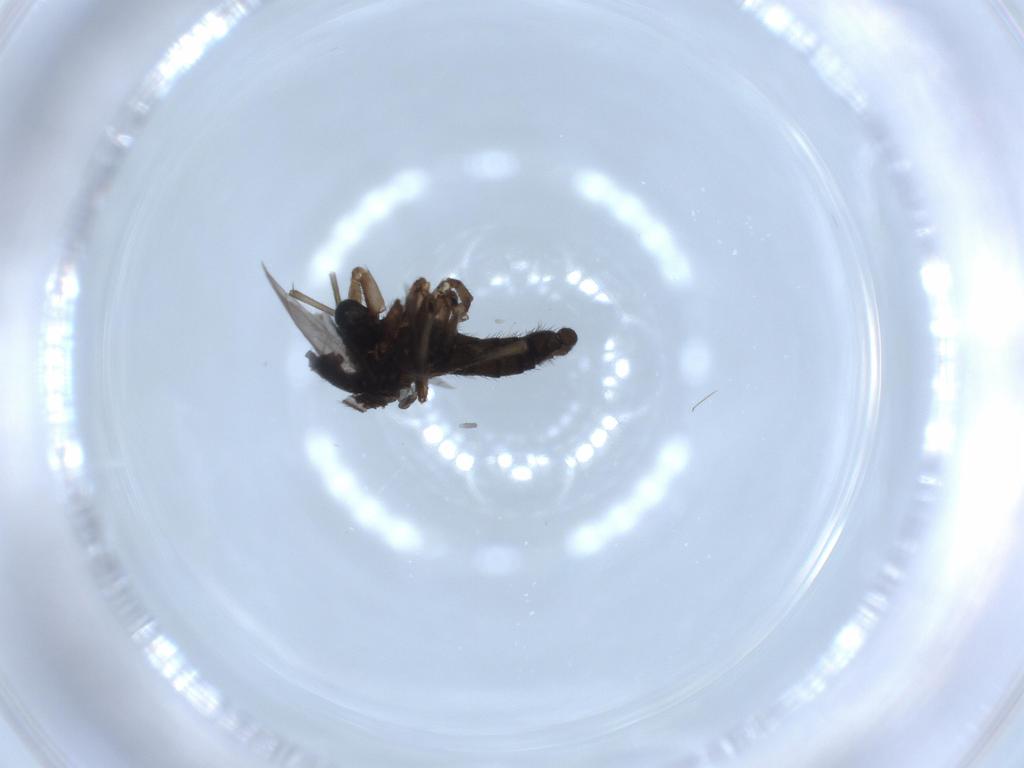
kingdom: Animalia
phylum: Arthropoda
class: Insecta
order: Diptera
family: Sciaridae
